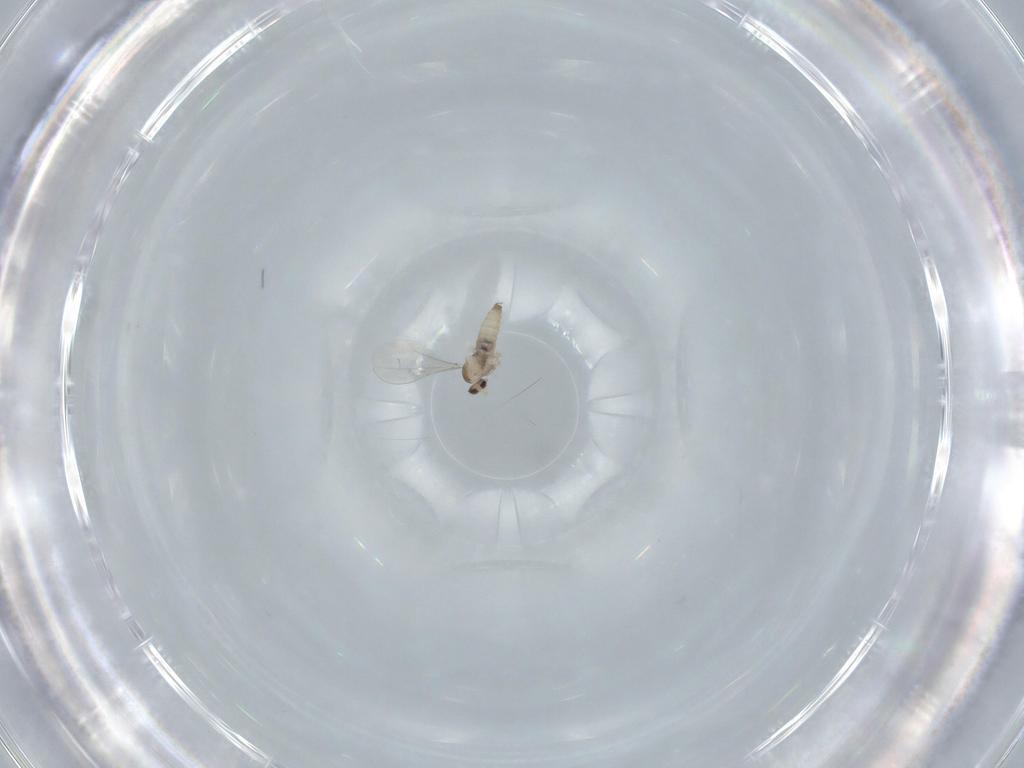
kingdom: Animalia
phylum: Arthropoda
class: Insecta
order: Diptera
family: Cecidomyiidae
